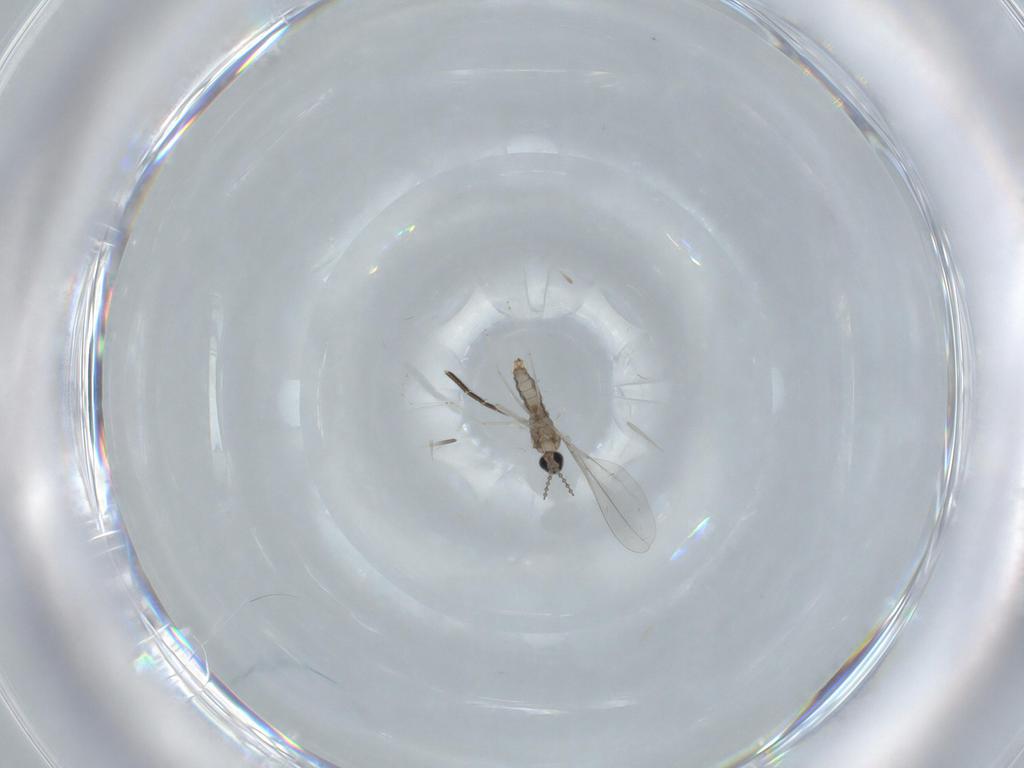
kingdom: Animalia
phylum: Arthropoda
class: Insecta
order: Diptera
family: Cecidomyiidae
